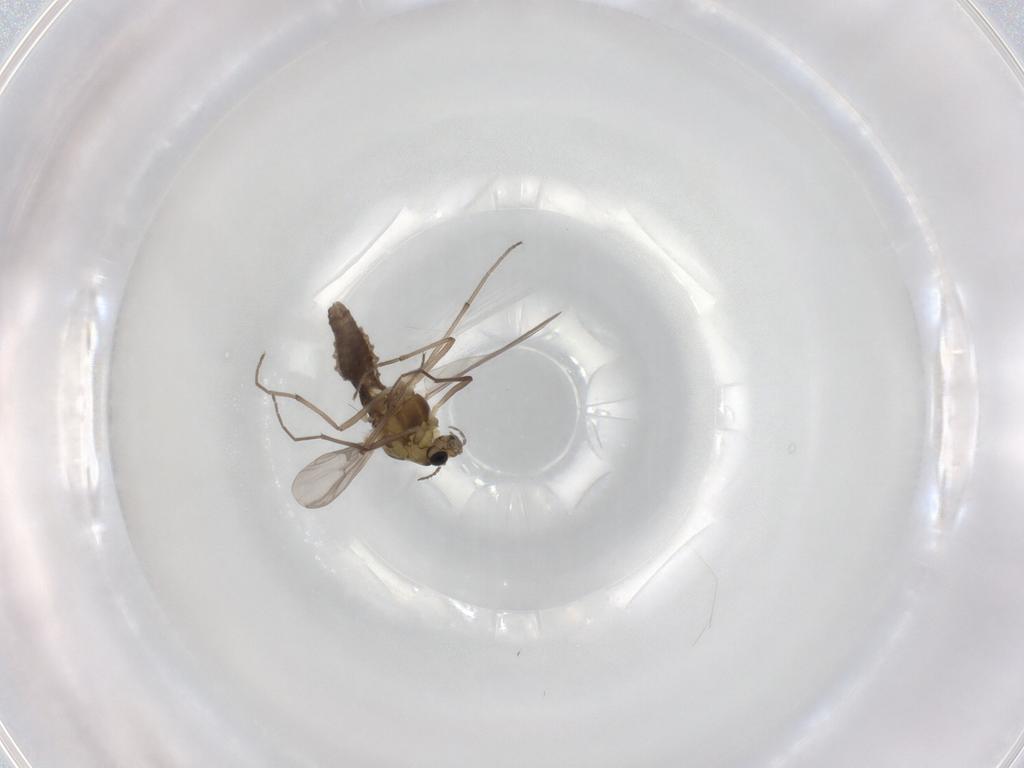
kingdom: Animalia
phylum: Arthropoda
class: Insecta
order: Diptera
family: Chironomidae
